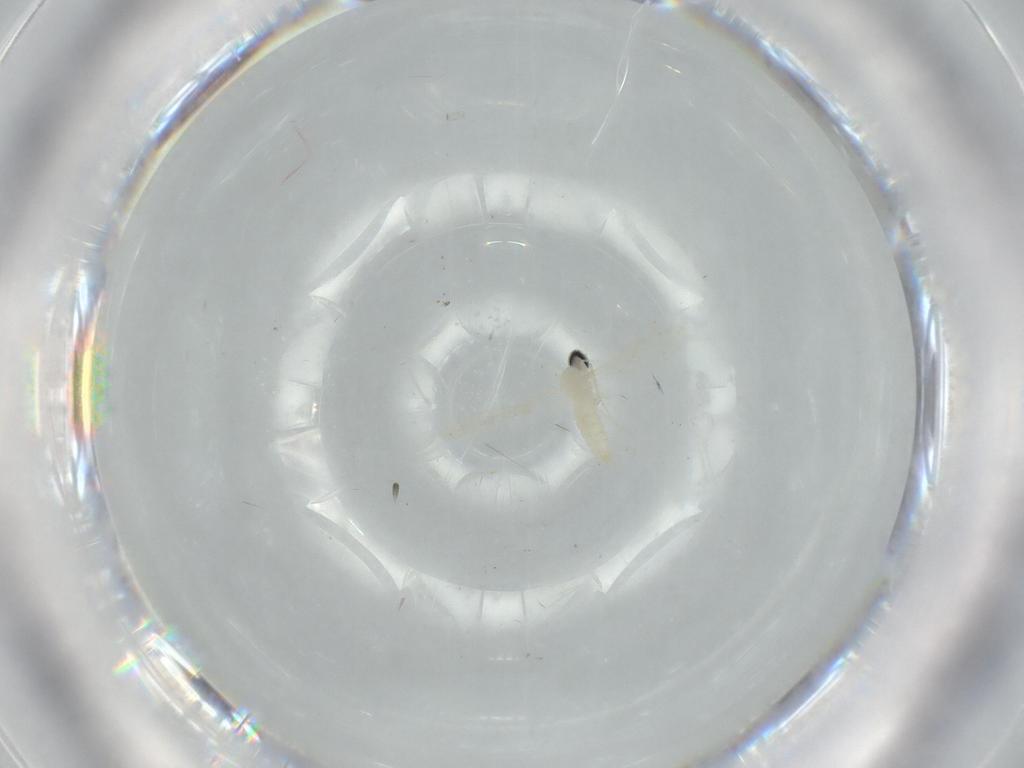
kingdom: Animalia
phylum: Arthropoda
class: Insecta
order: Diptera
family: Cecidomyiidae
